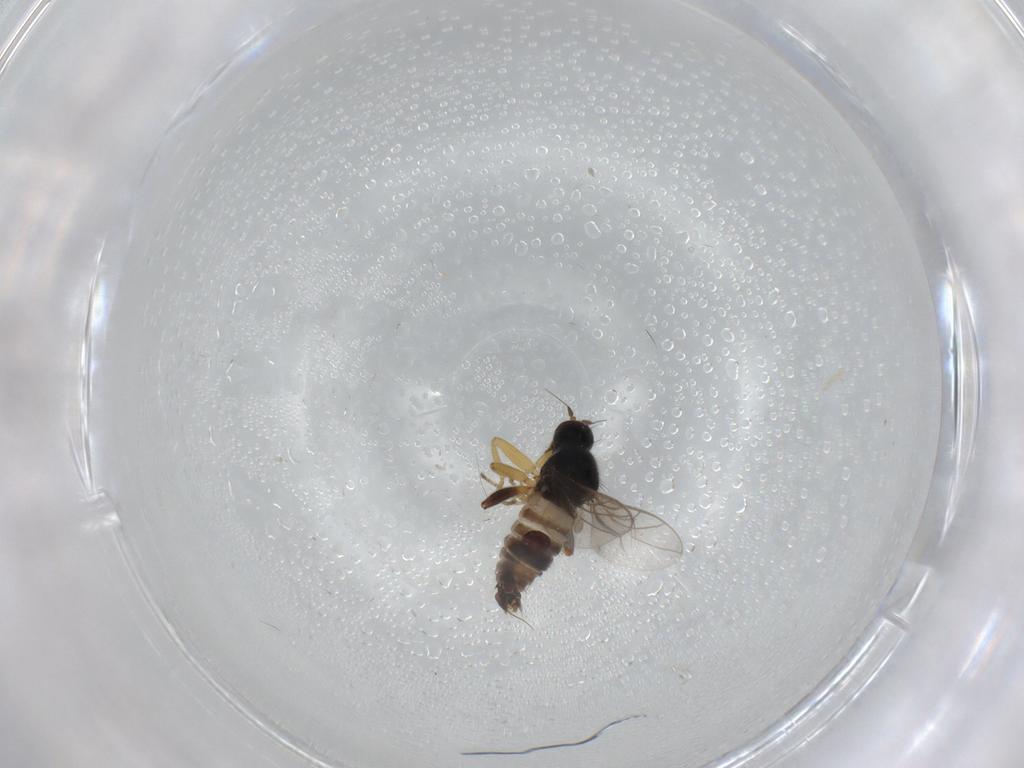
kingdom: Animalia
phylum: Arthropoda
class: Insecta
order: Diptera
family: Hybotidae
